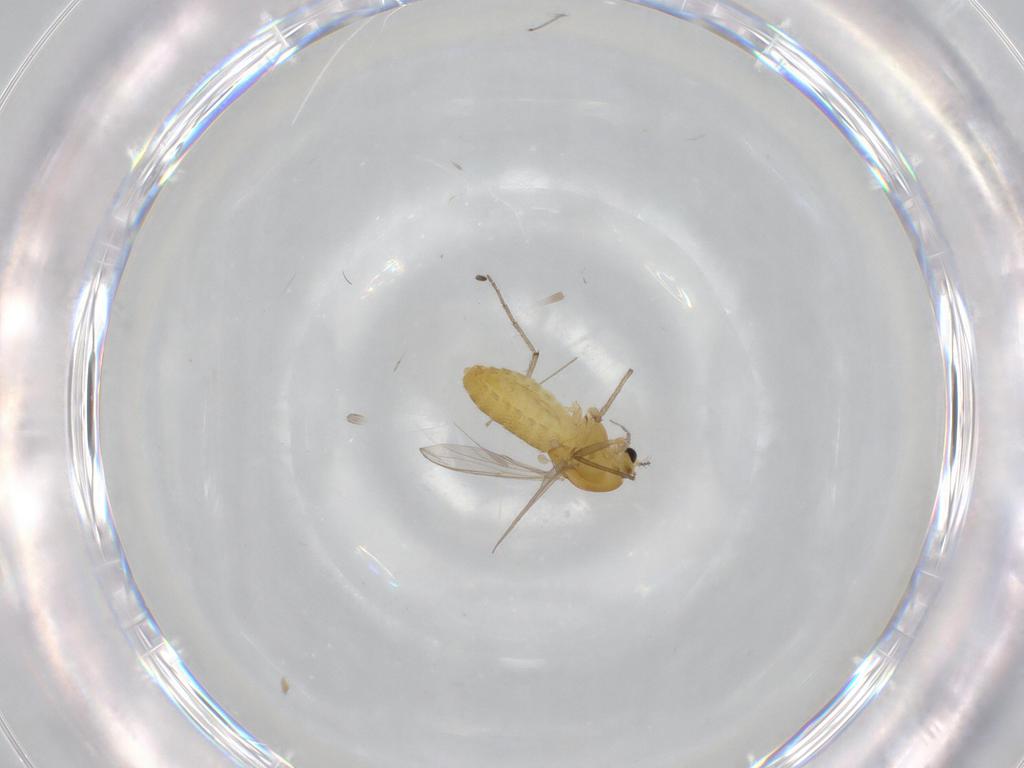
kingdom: Animalia
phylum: Arthropoda
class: Insecta
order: Diptera
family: Chironomidae
